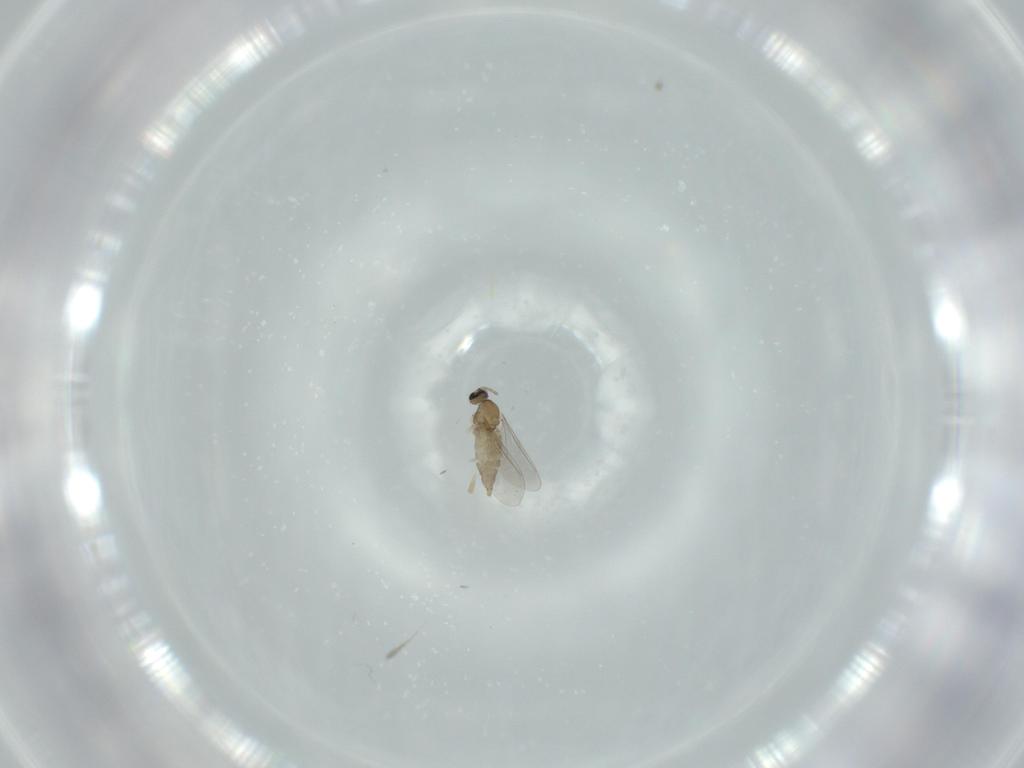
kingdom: Animalia
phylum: Arthropoda
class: Insecta
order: Diptera
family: Cecidomyiidae
